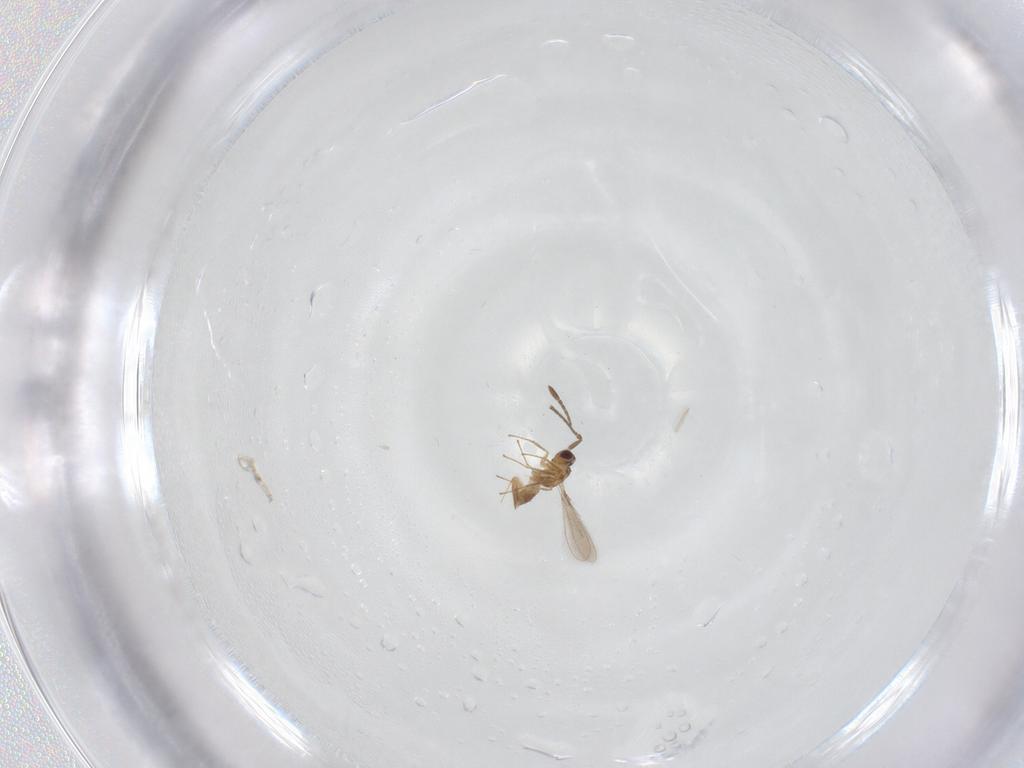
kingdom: Animalia
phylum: Arthropoda
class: Insecta
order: Hymenoptera
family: Mymaridae
